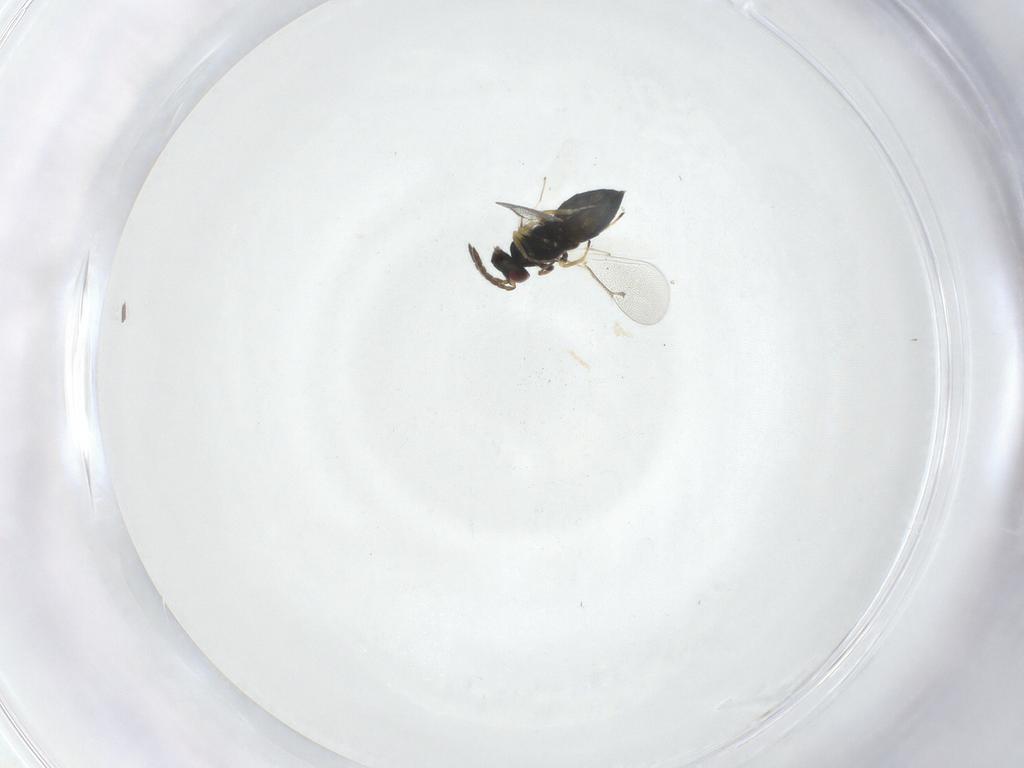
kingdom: Animalia
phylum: Arthropoda
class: Insecta
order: Hymenoptera
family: Eulophidae
